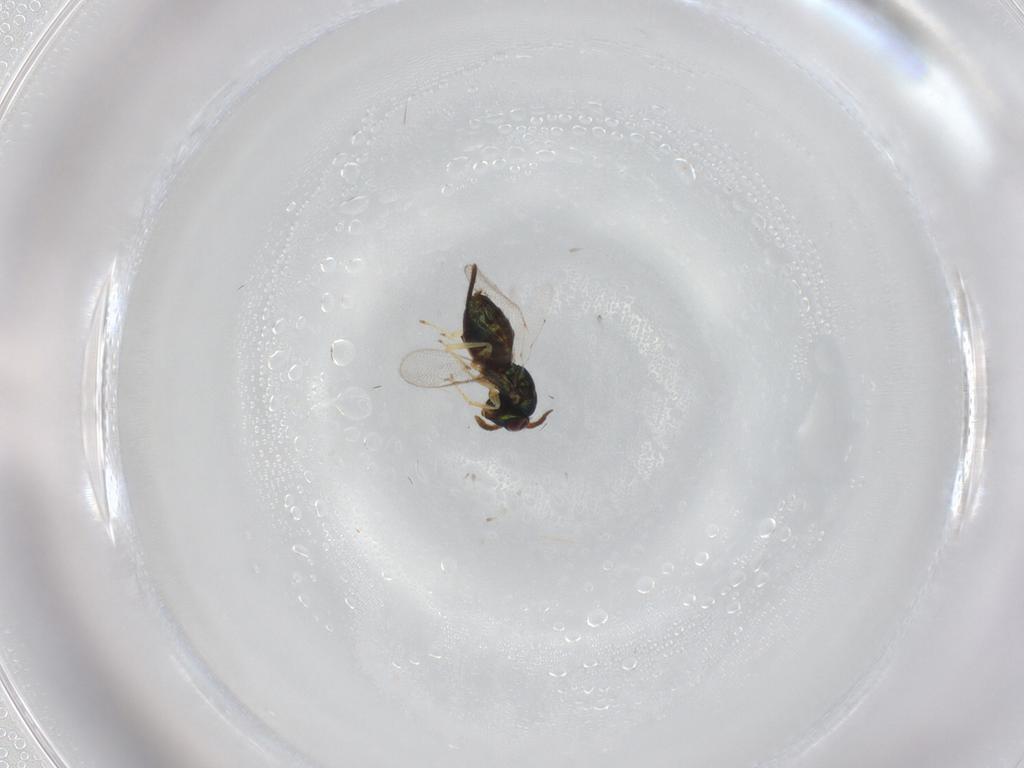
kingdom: Animalia
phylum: Arthropoda
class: Insecta
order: Hymenoptera
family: Pteromalidae
